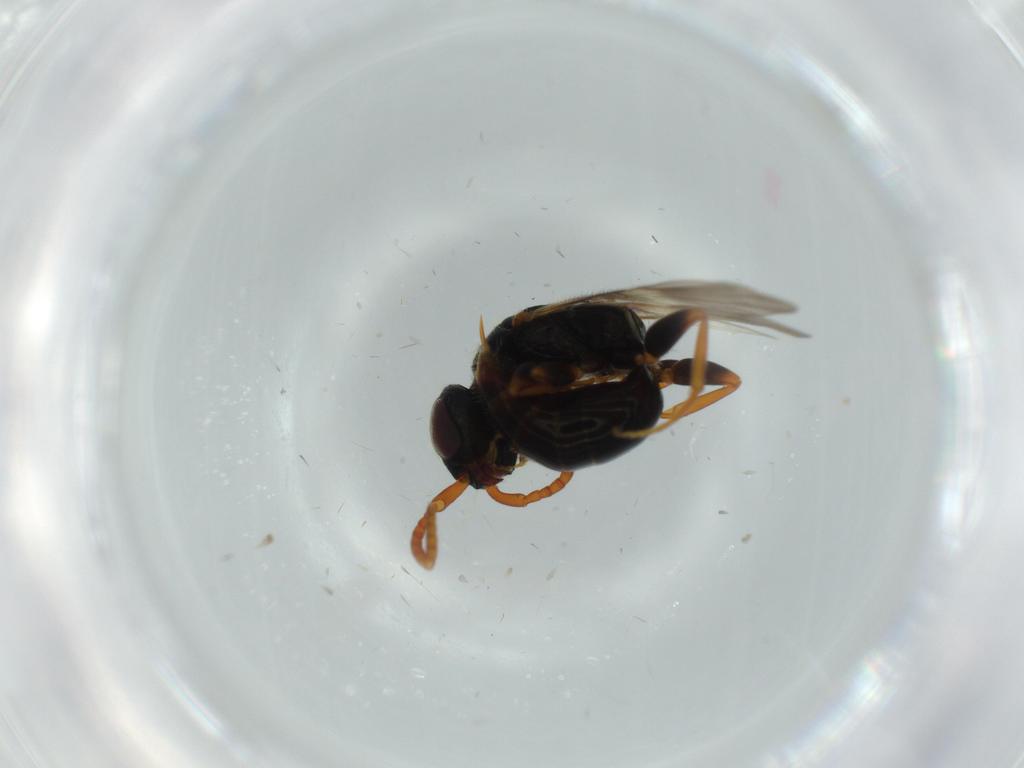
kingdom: Animalia
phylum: Arthropoda
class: Insecta
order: Hymenoptera
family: Bethylidae
